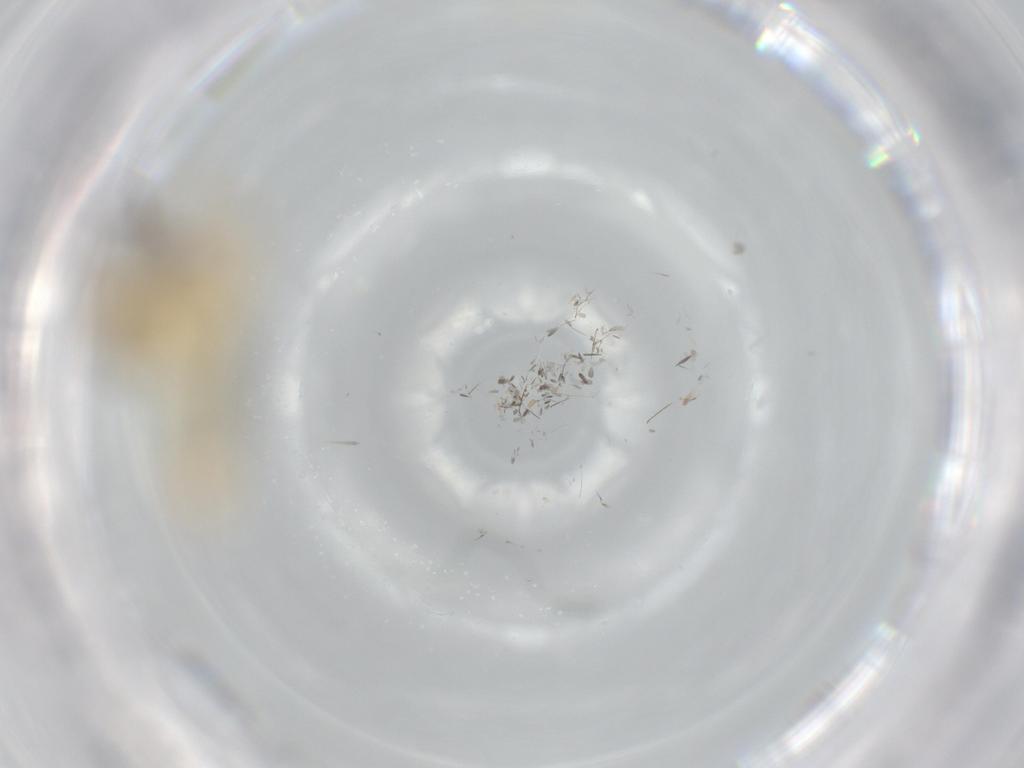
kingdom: Animalia
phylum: Arthropoda
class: Insecta
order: Orthoptera
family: Gryllidae
